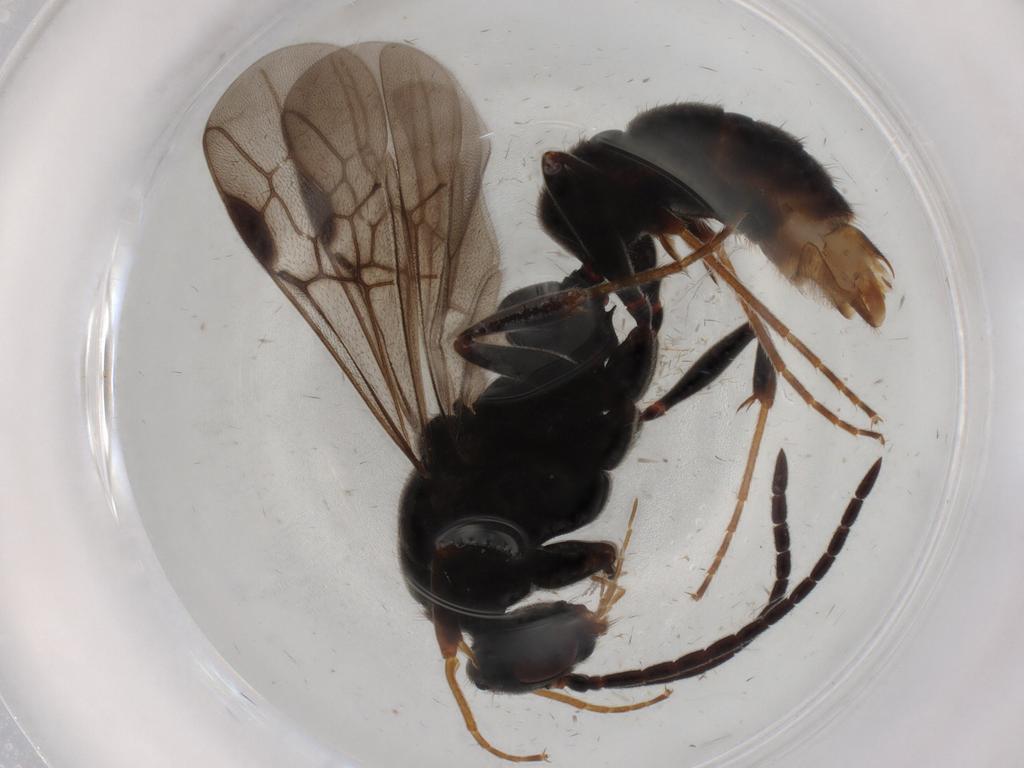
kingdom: Animalia
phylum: Arthropoda
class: Insecta
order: Hymenoptera
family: Formicidae
